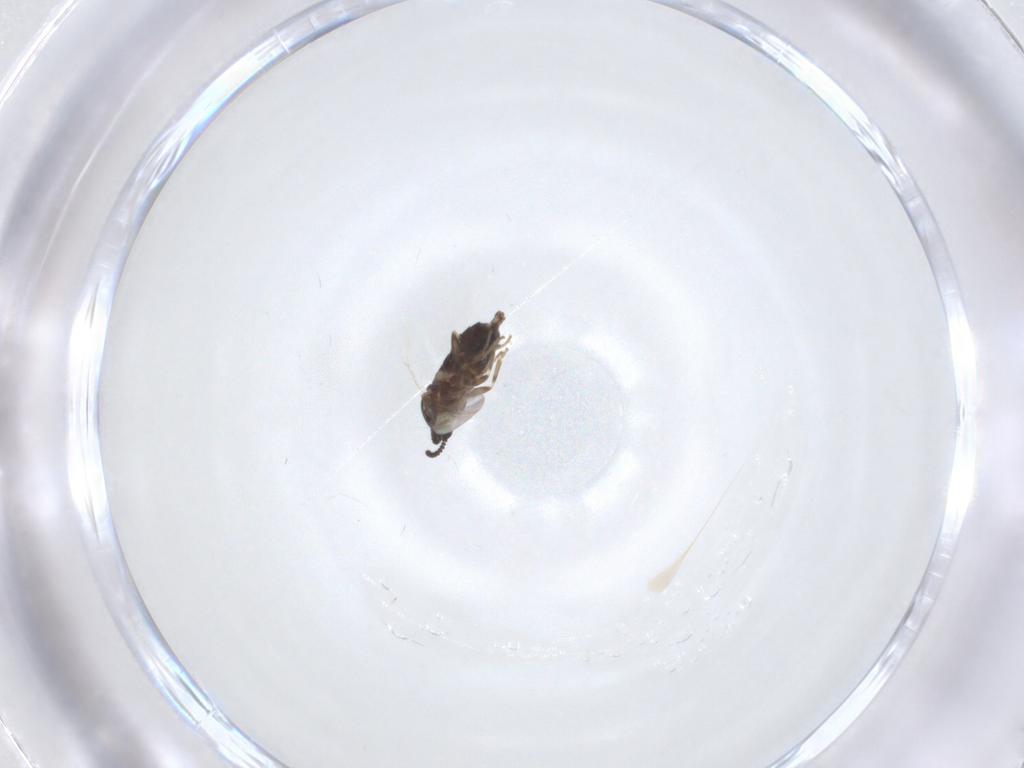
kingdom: Animalia
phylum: Arthropoda
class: Insecta
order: Diptera
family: Scatopsidae
